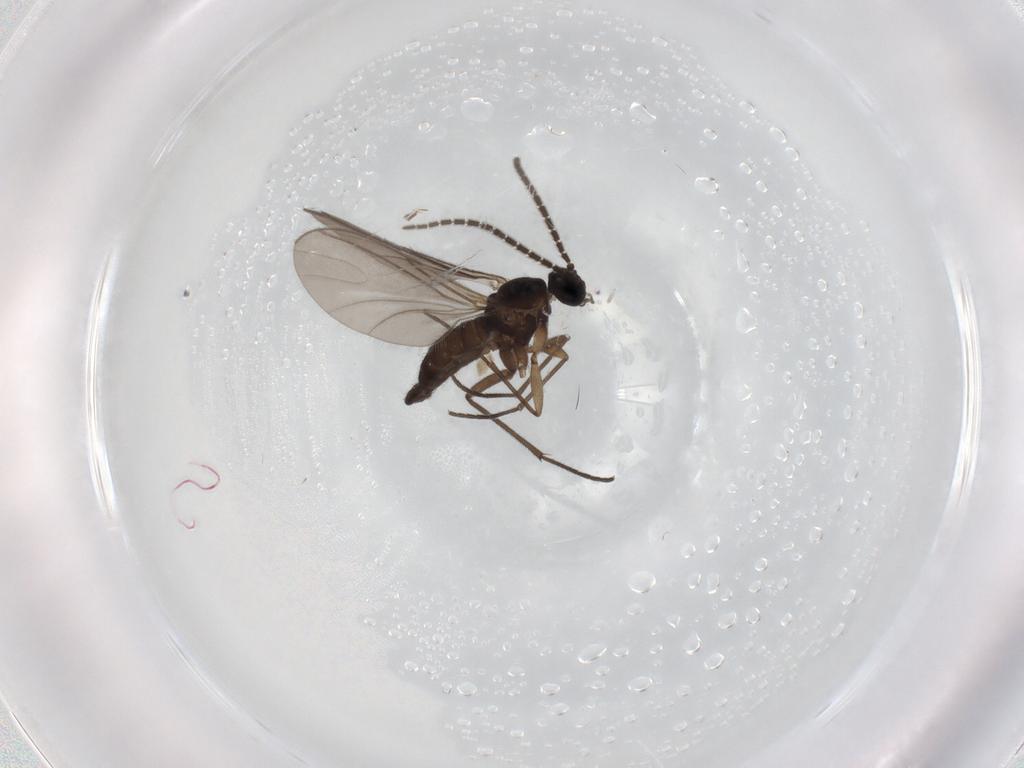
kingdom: Animalia
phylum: Arthropoda
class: Insecta
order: Diptera
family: Sciaridae
